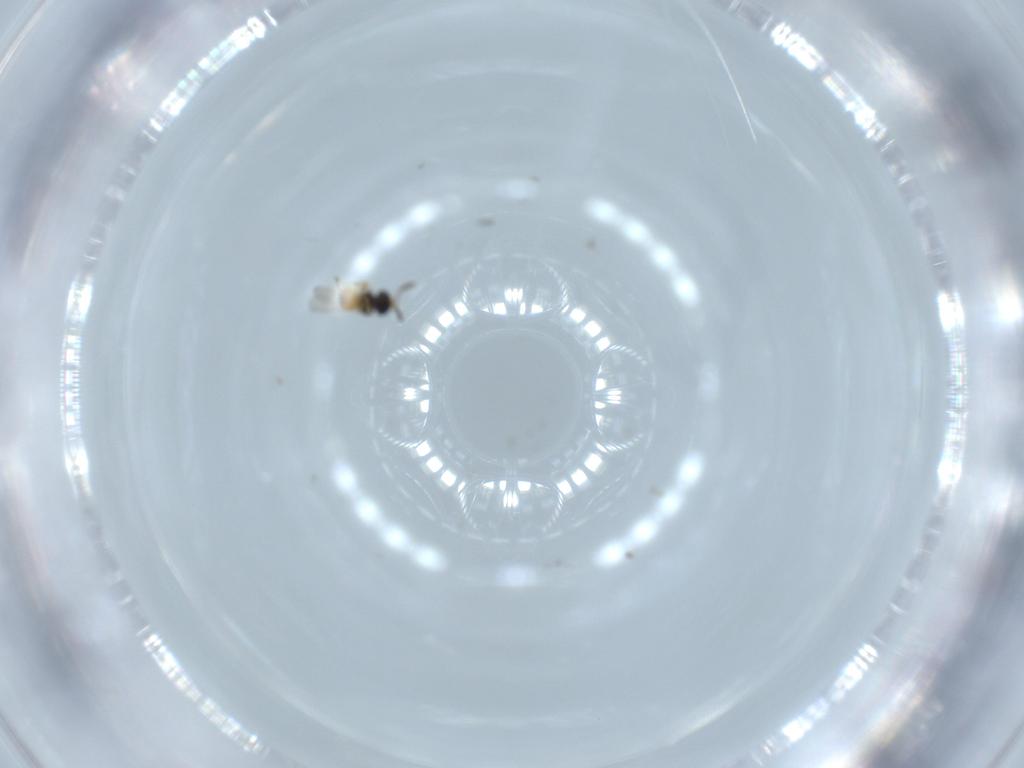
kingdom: Animalia
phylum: Arthropoda
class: Insecta
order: Hymenoptera
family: Scelionidae
